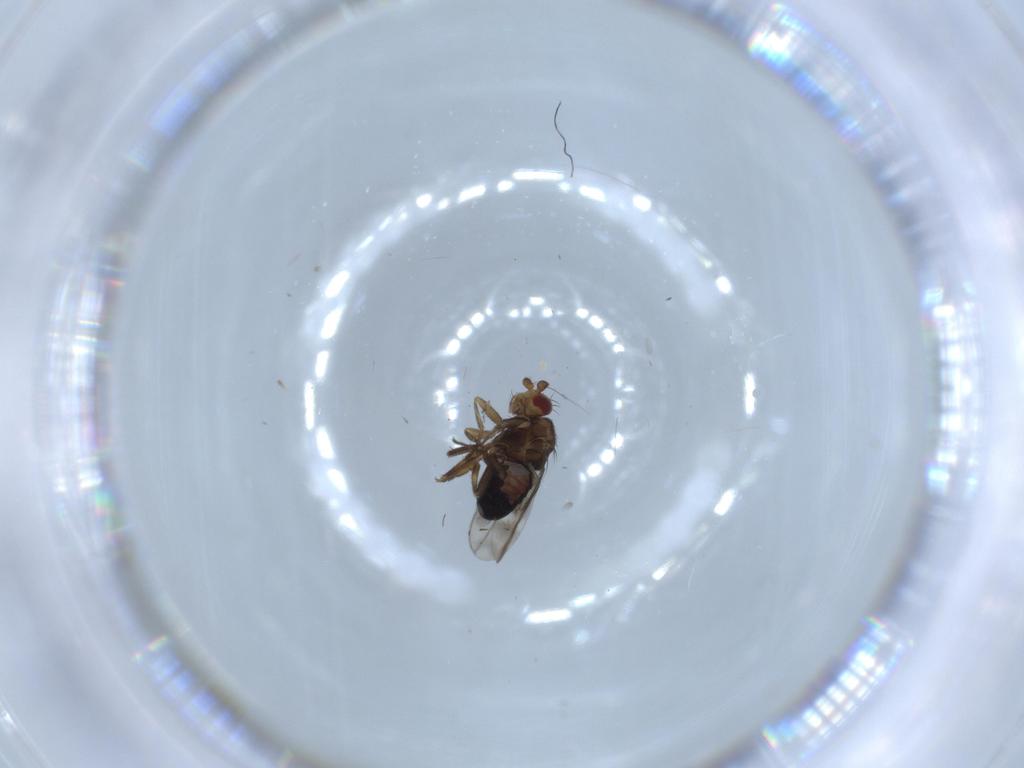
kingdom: Animalia
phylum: Arthropoda
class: Insecta
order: Diptera
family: Sphaeroceridae
